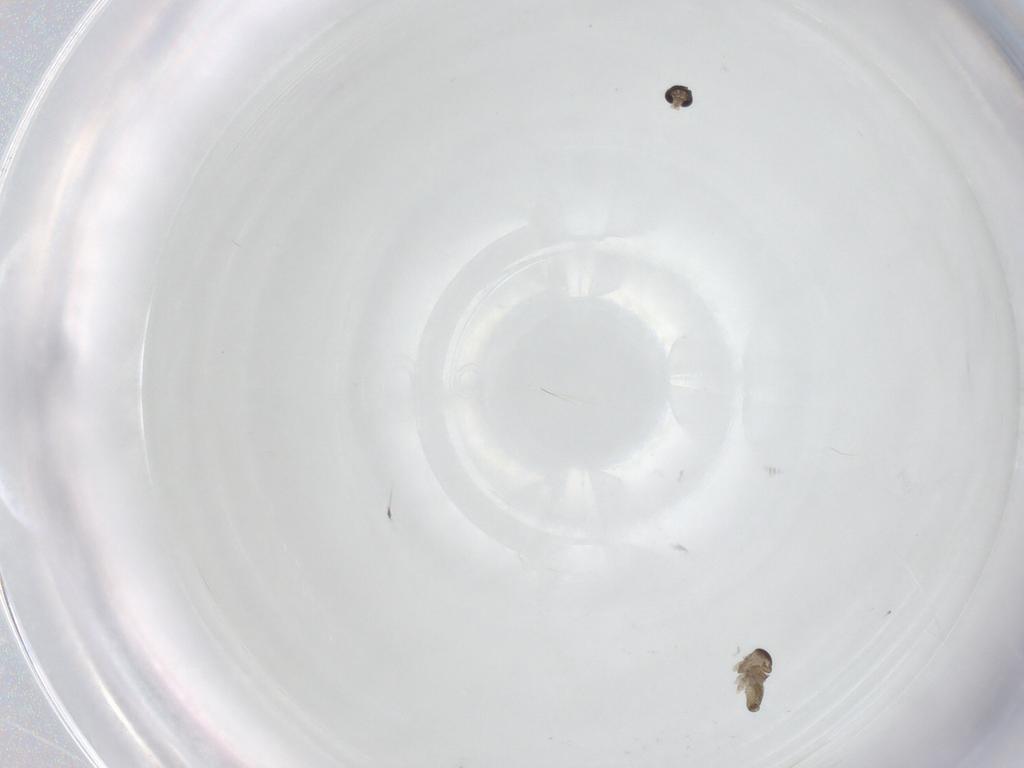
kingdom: Animalia
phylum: Arthropoda
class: Insecta
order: Diptera
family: Cecidomyiidae
